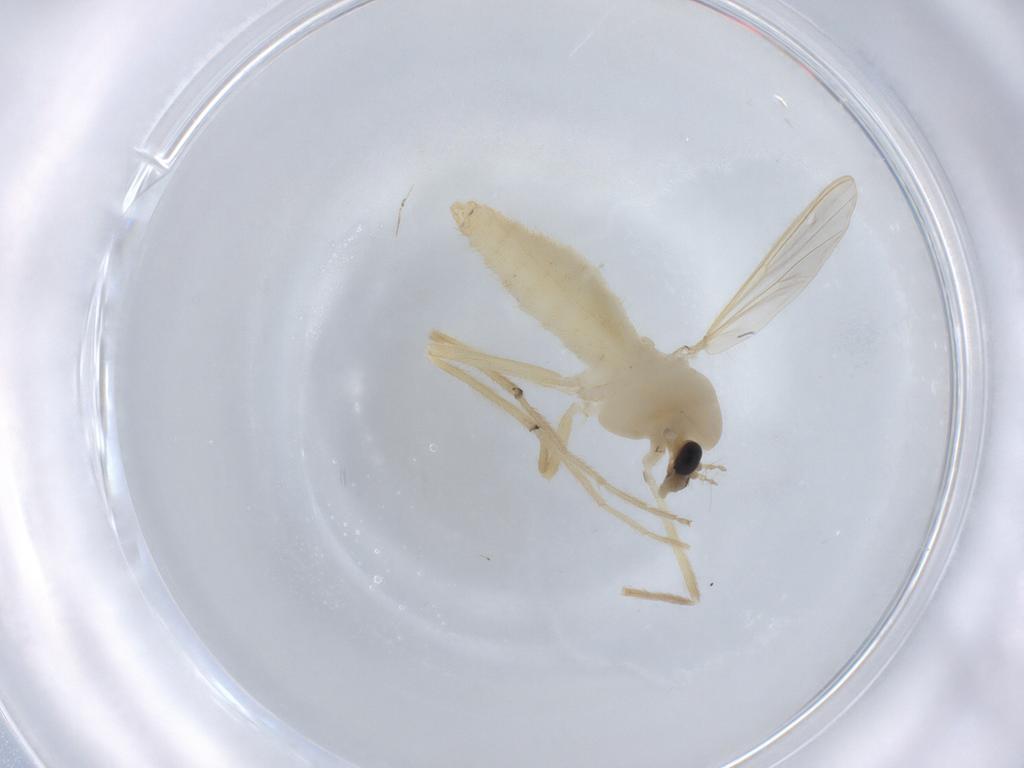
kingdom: Animalia
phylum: Arthropoda
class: Insecta
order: Diptera
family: Chironomidae
